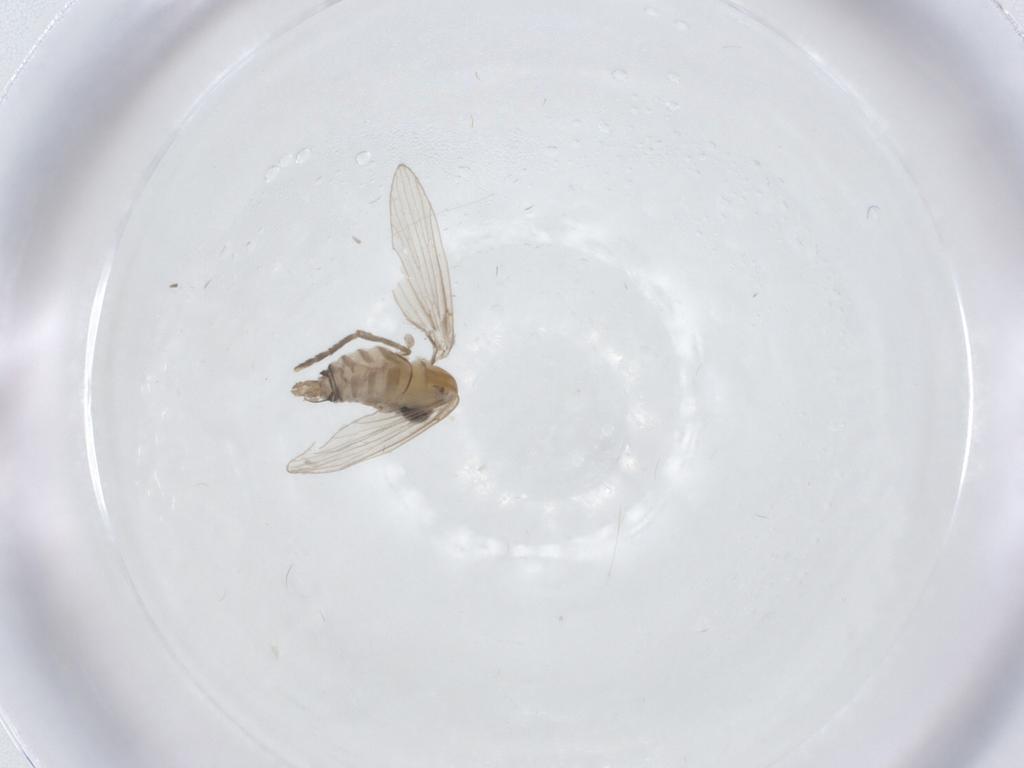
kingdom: Animalia
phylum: Arthropoda
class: Insecta
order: Diptera
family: Psychodidae
